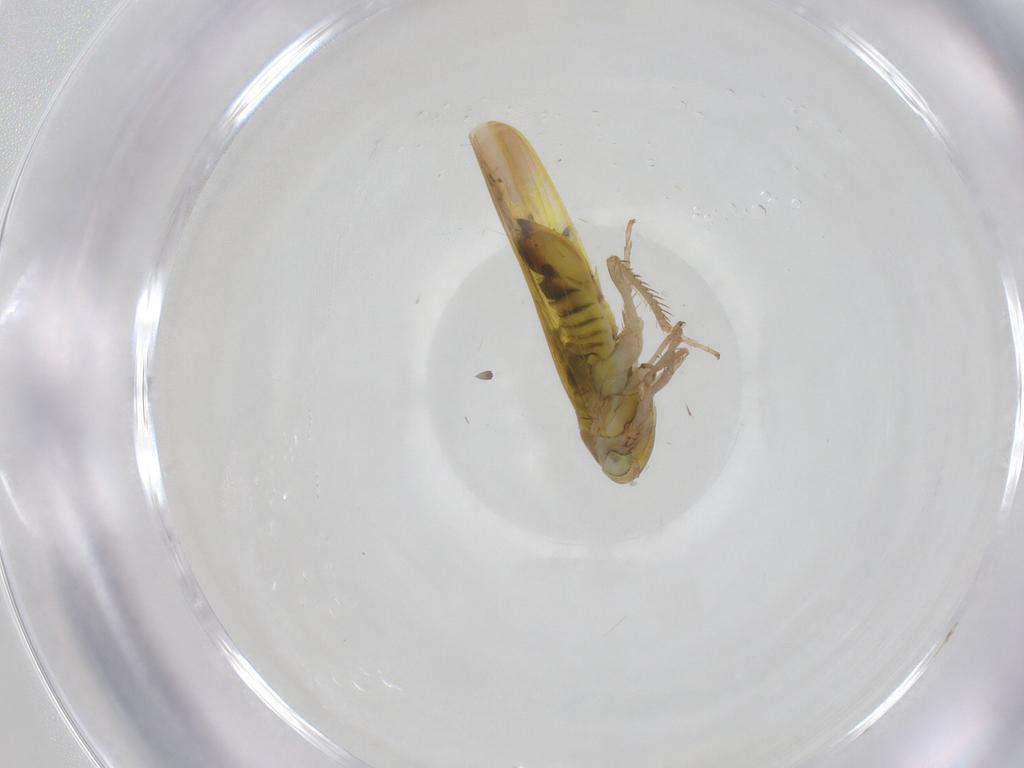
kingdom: Animalia
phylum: Arthropoda
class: Insecta
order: Hemiptera
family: Cicadellidae
